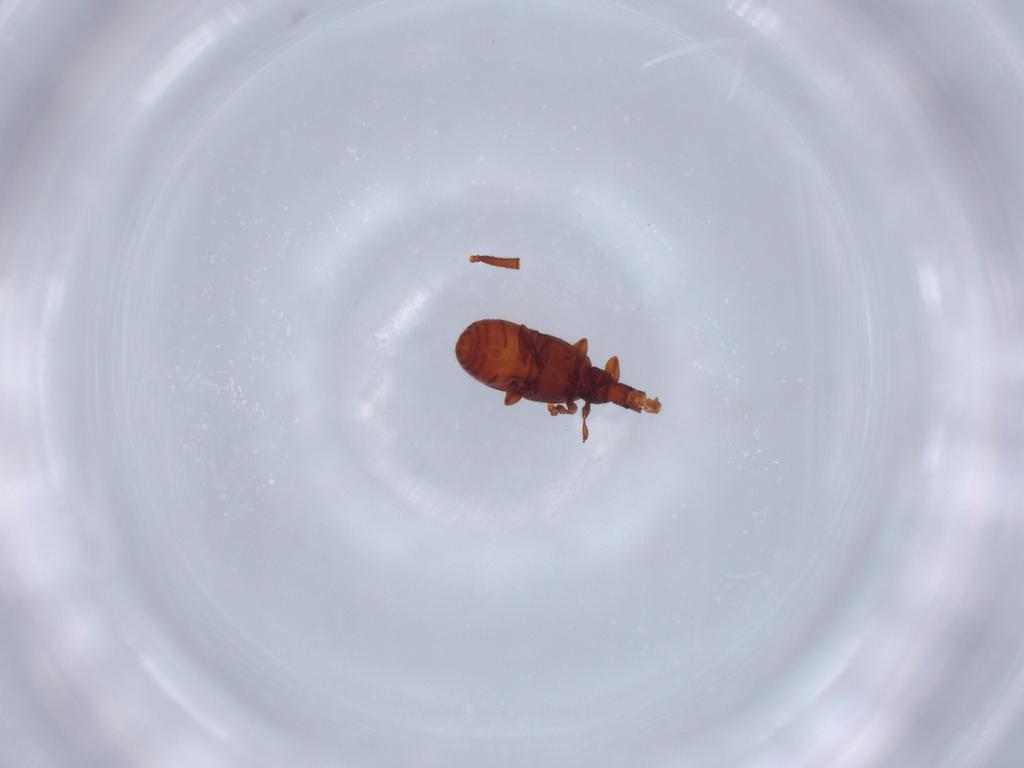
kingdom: Animalia
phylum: Arthropoda
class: Insecta
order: Coleoptera
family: Staphylinidae
